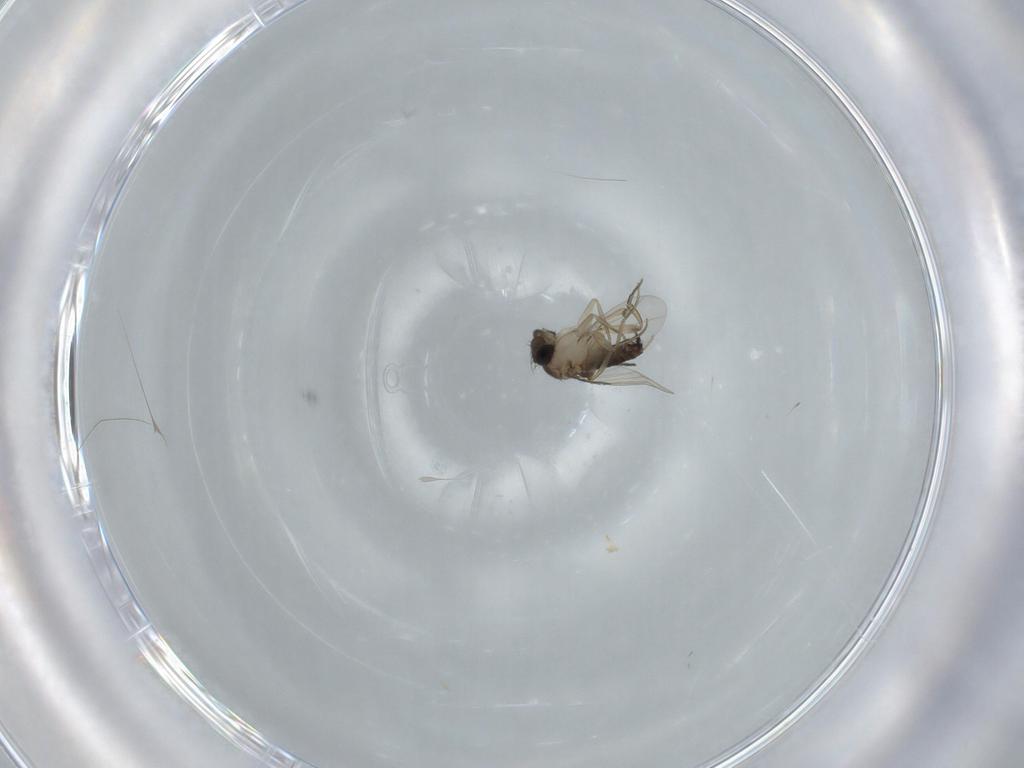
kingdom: Animalia
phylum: Arthropoda
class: Insecta
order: Diptera
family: Phoridae
